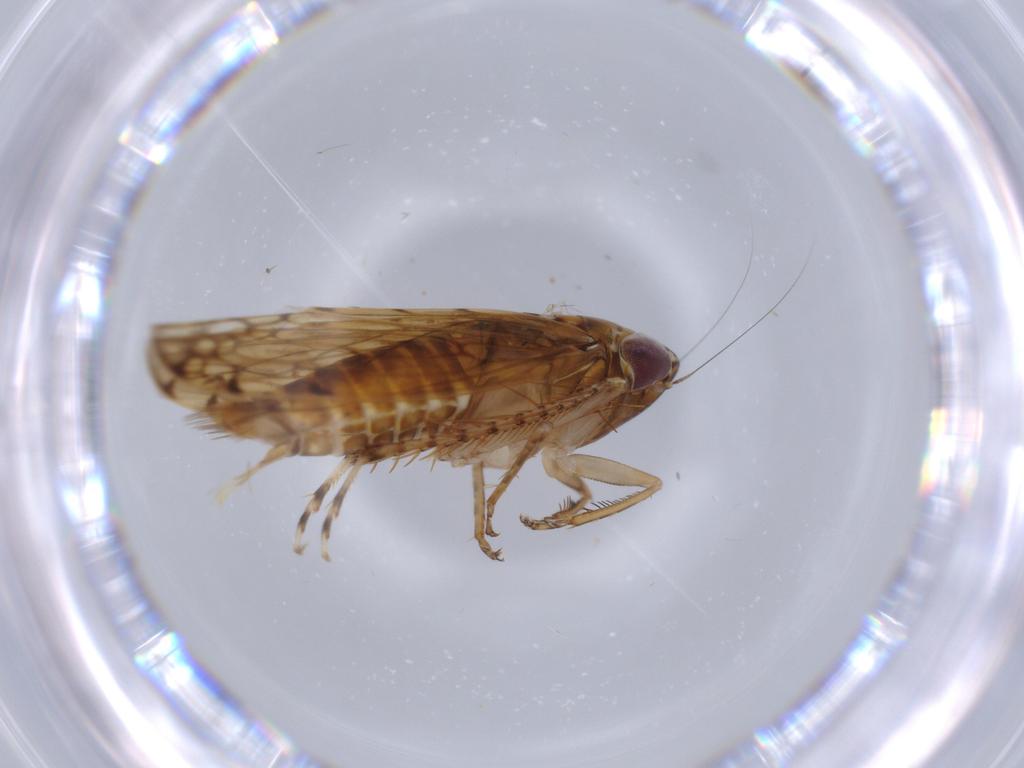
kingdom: Animalia
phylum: Arthropoda
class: Insecta
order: Hemiptera
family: Cicadellidae
